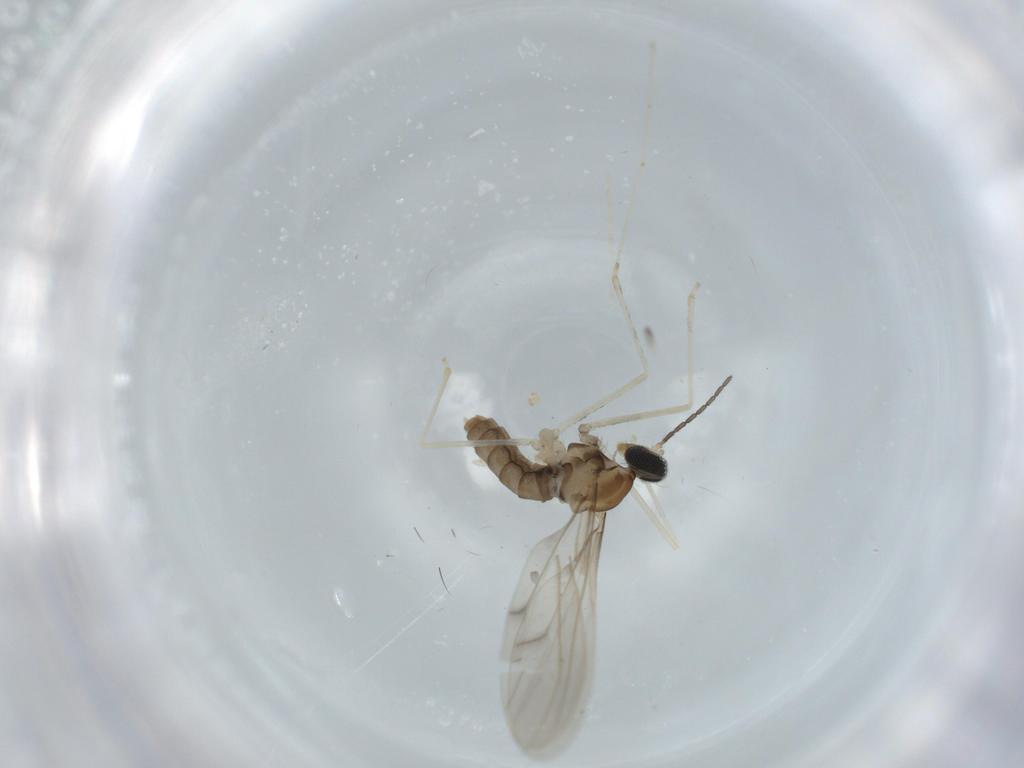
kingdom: Animalia
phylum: Arthropoda
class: Insecta
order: Diptera
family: Cecidomyiidae
